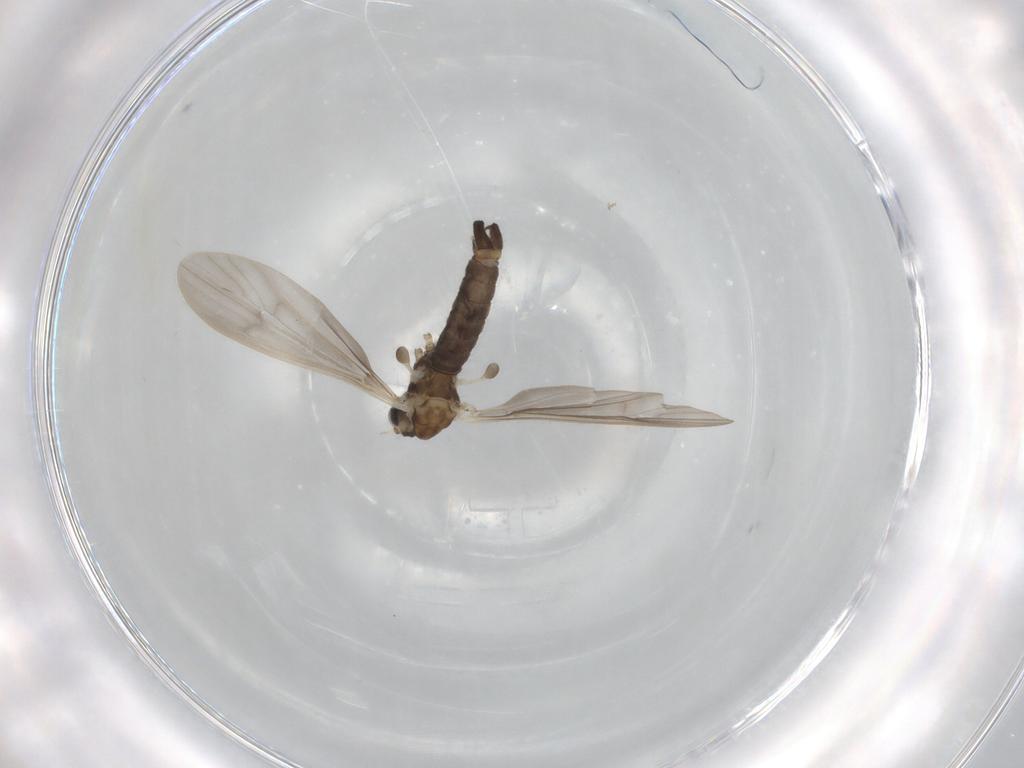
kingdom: Animalia
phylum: Arthropoda
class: Insecta
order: Diptera
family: Limoniidae
